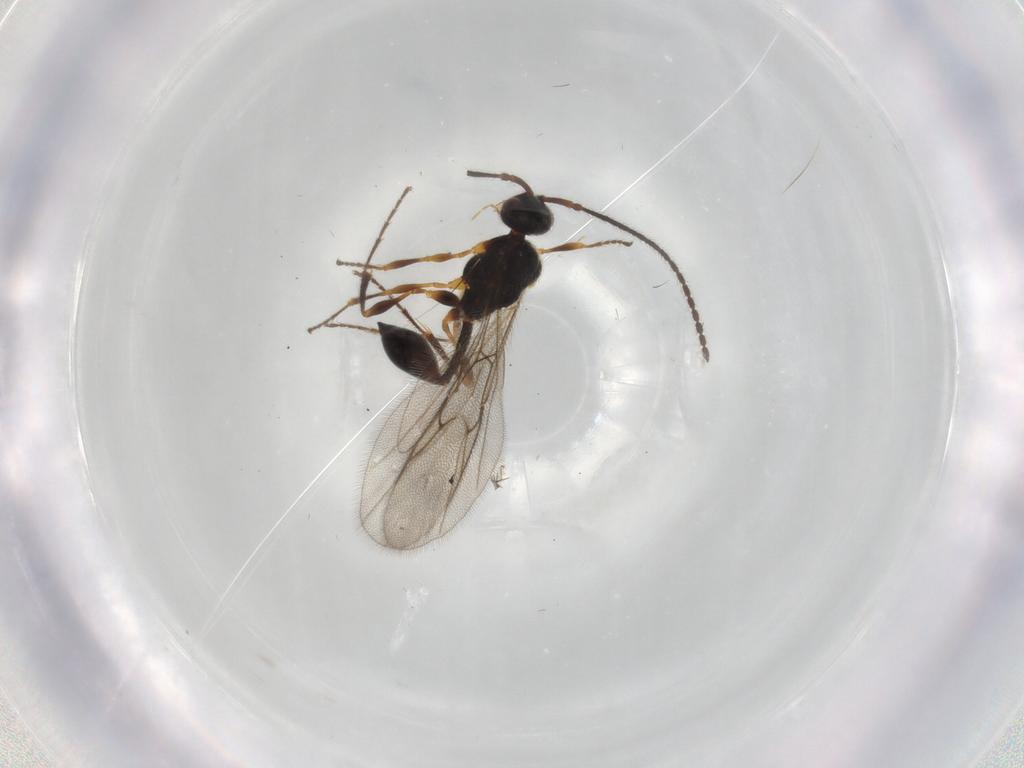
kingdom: Animalia
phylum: Arthropoda
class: Insecta
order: Hymenoptera
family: Diapriidae
